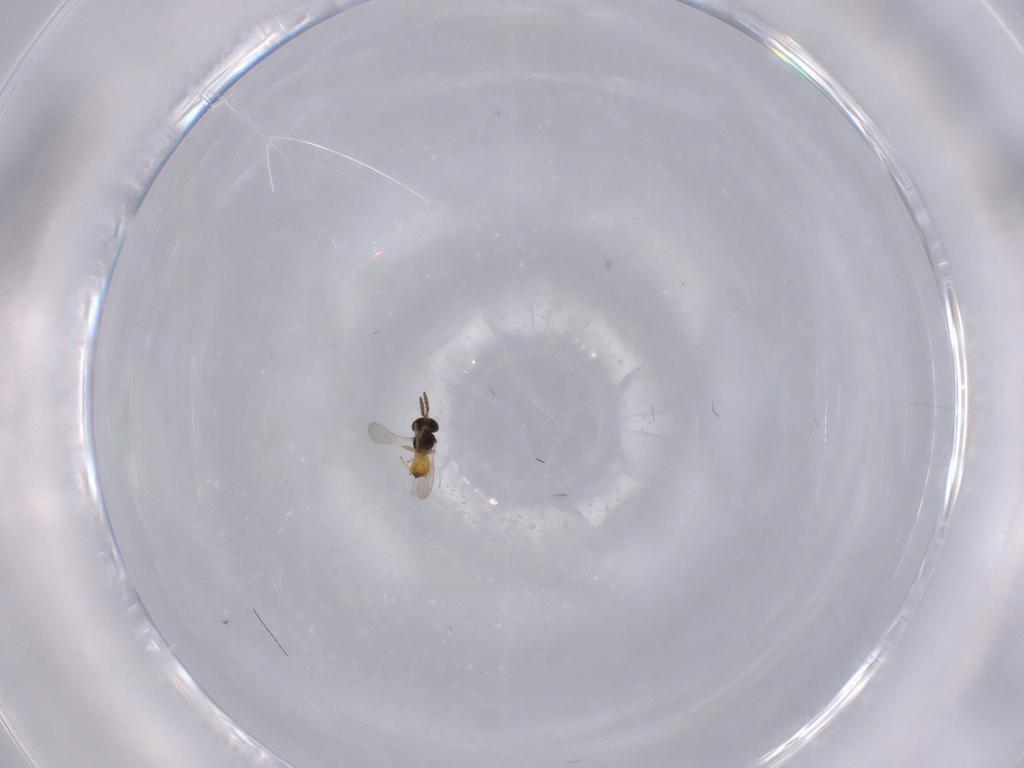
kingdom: Animalia
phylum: Arthropoda
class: Insecta
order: Hymenoptera
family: Scelionidae
